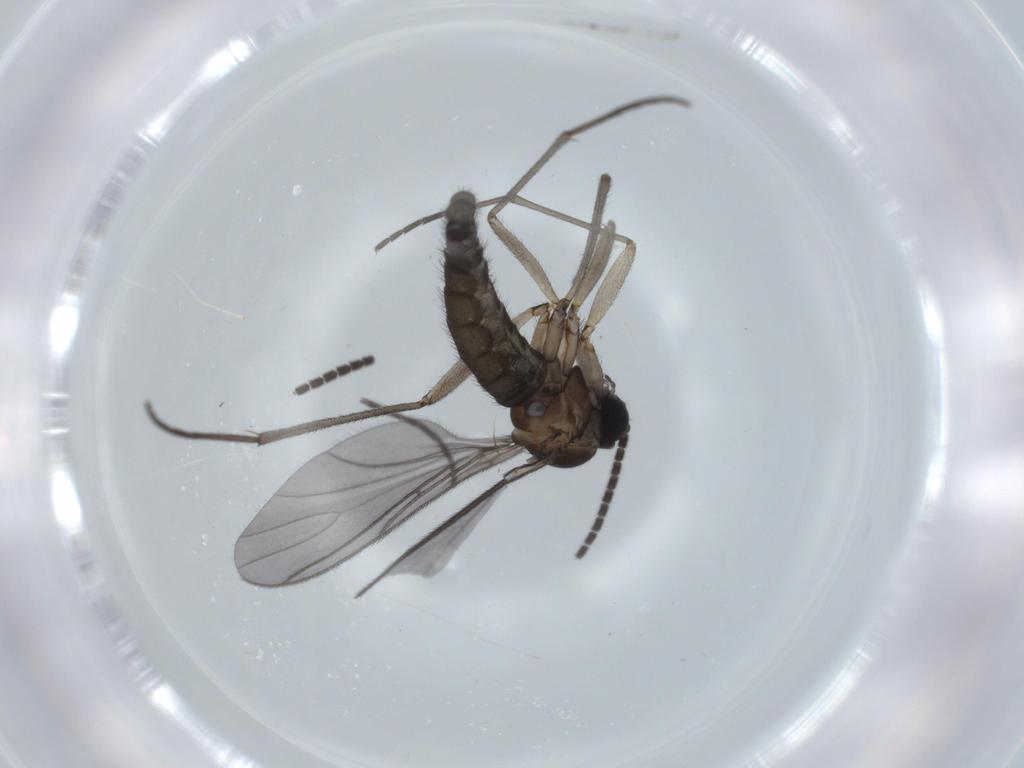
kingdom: Animalia
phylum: Arthropoda
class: Insecta
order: Diptera
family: Sciaridae
